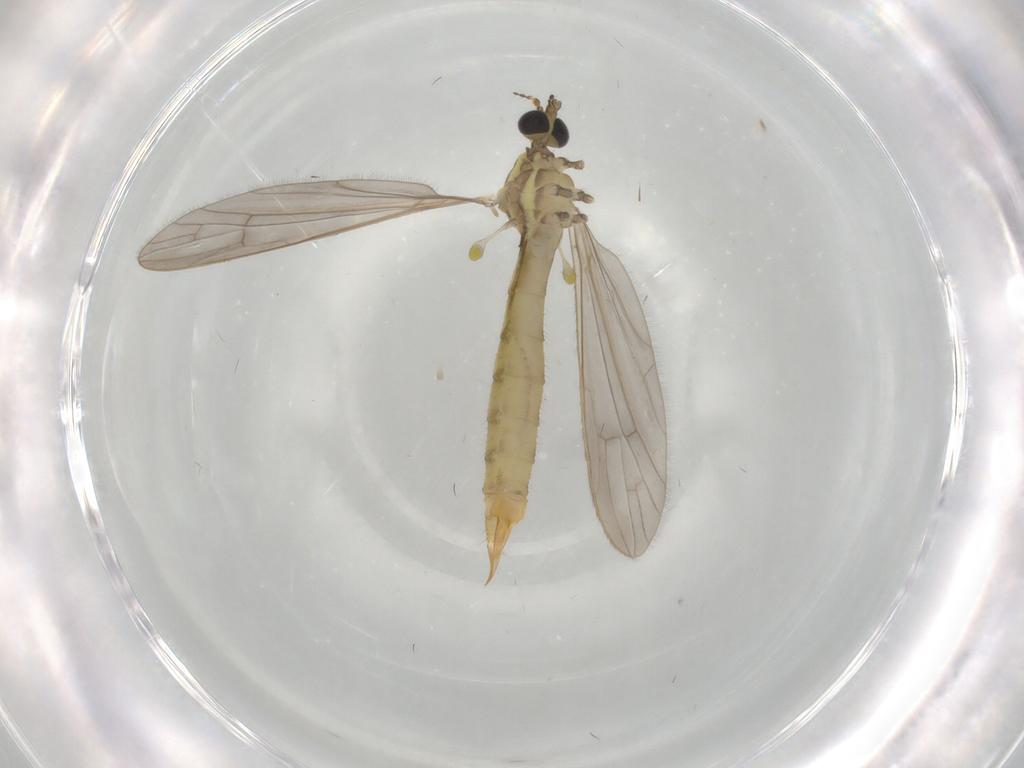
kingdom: Animalia
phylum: Arthropoda
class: Insecta
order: Diptera
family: Limoniidae
